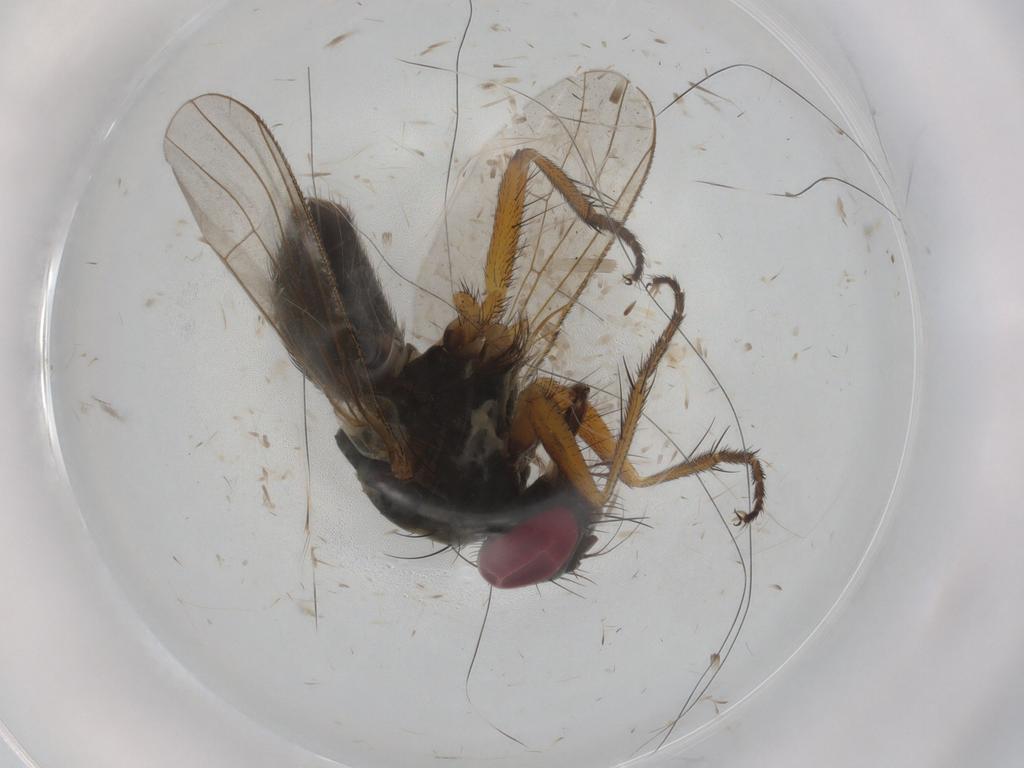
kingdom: Animalia
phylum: Arthropoda
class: Insecta
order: Diptera
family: Muscidae
